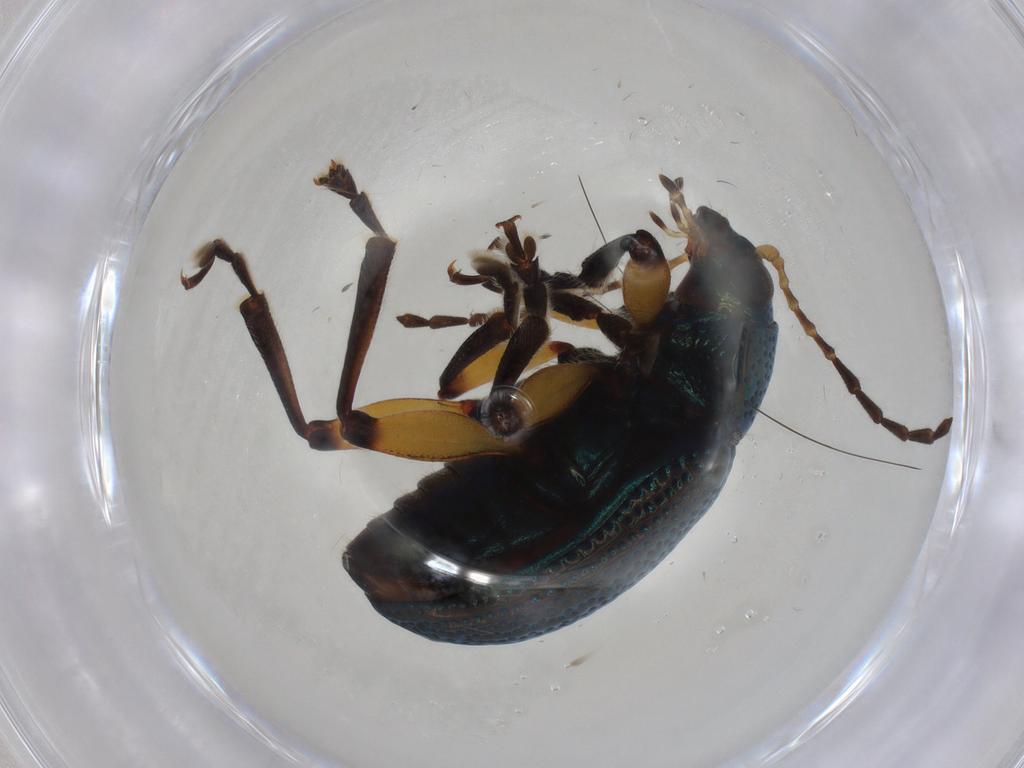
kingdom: Animalia
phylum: Arthropoda
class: Insecta
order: Coleoptera
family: Chrysomelidae
